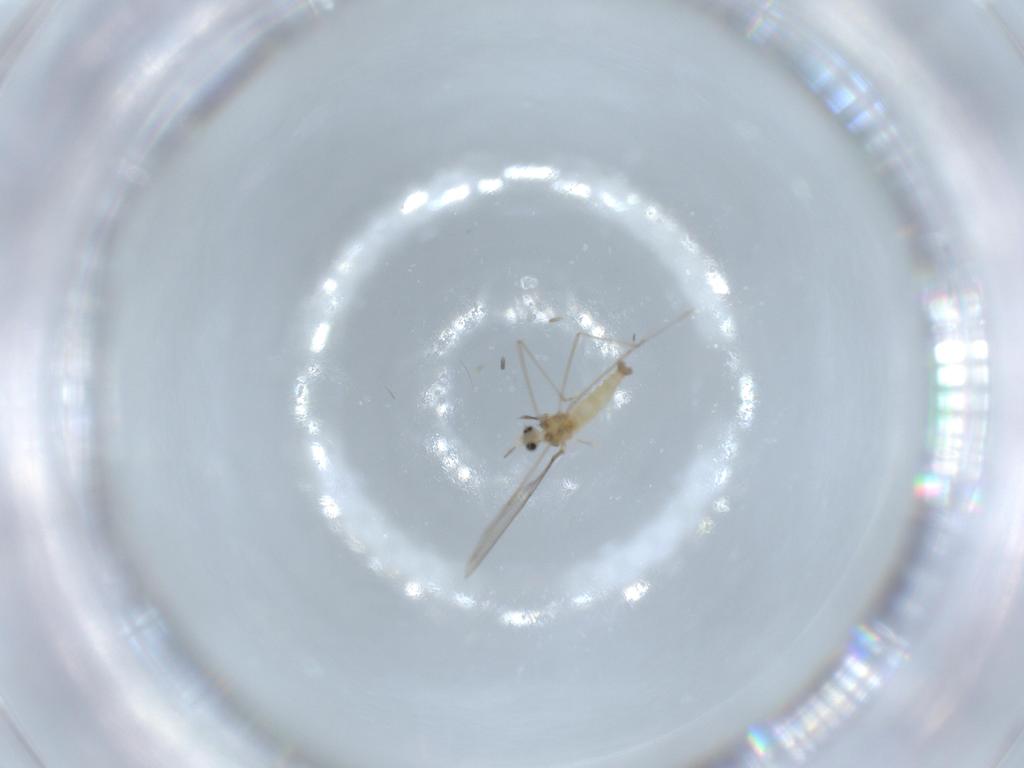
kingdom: Animalia
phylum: Arthropoda
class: Insecta
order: Diptera
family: Cecidomyiidae
